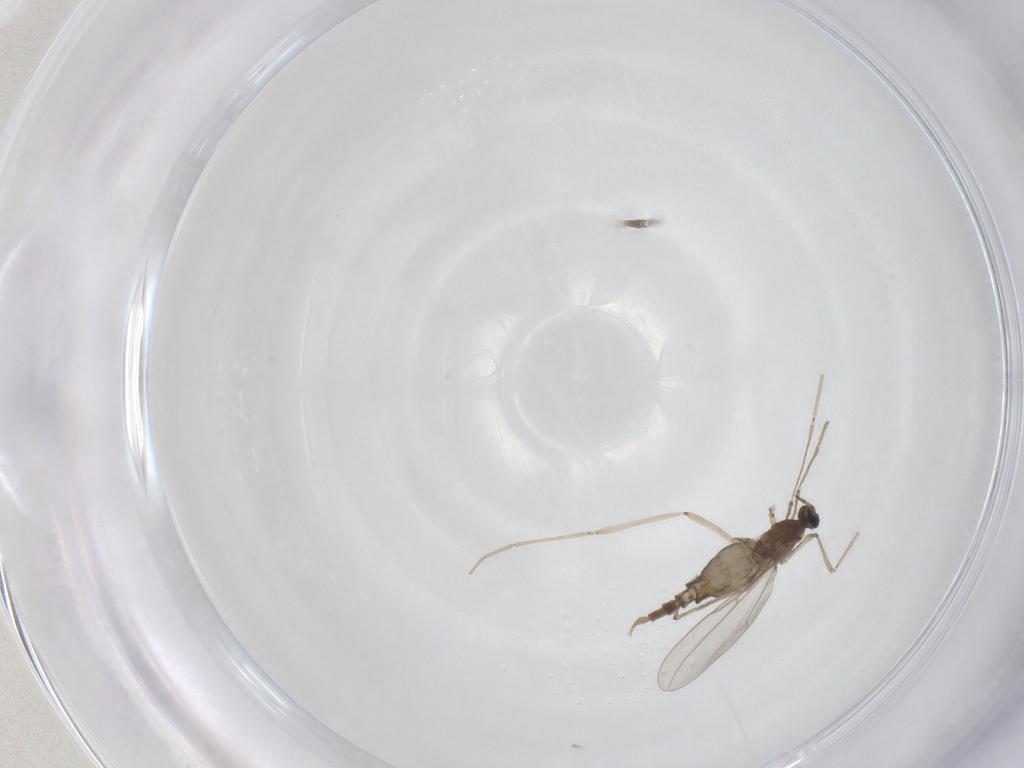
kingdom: Animalia
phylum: Arthropoda
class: Insecta
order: Diptera
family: Cecidomyiidae
